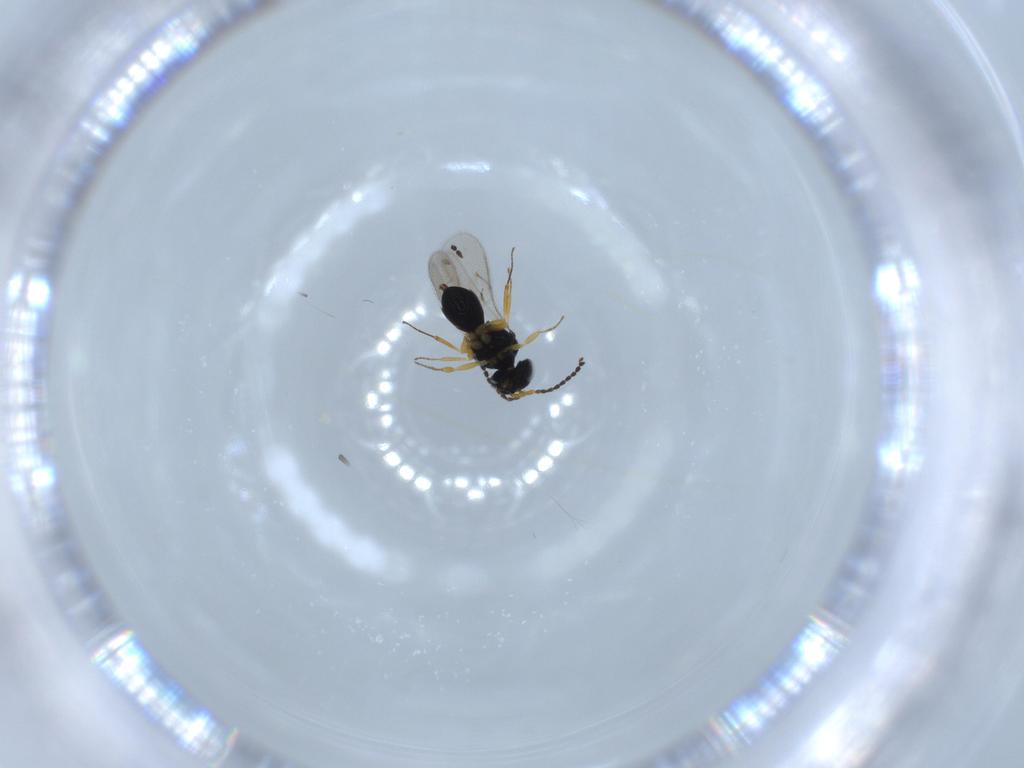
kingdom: Animalia
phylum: Arthropoda
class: Insecta
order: Hymenoptera
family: Scelionidae
